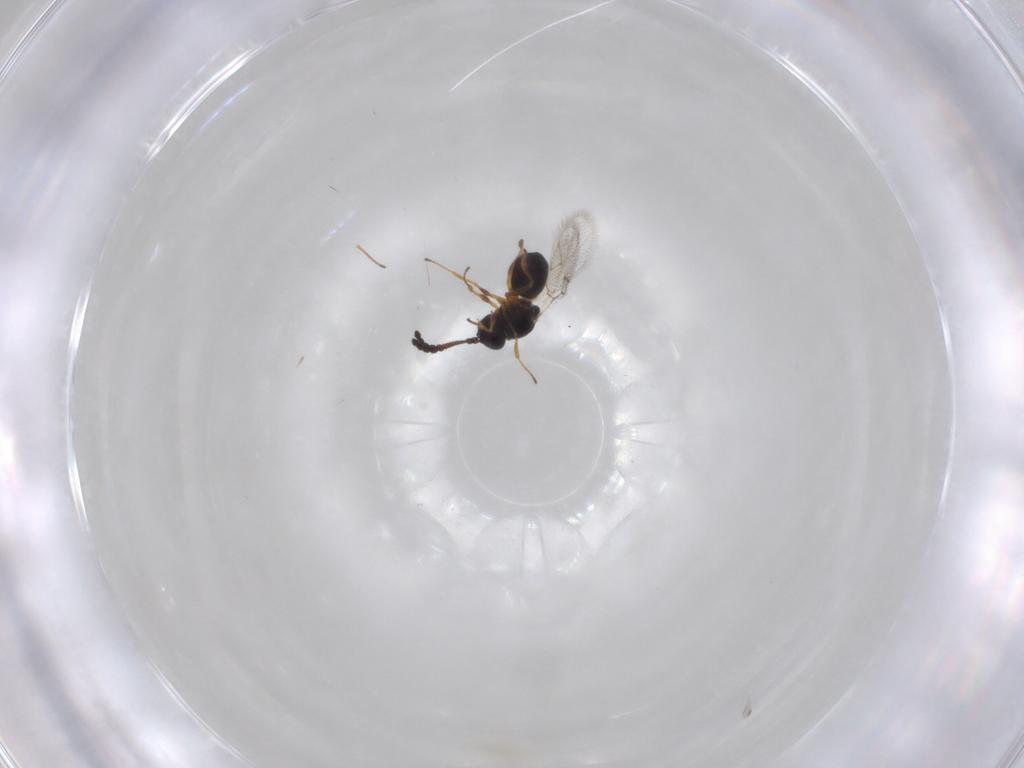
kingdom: Animalia
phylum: Arthropoda
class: Insecta
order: Hymenoptera
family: Figitidae
